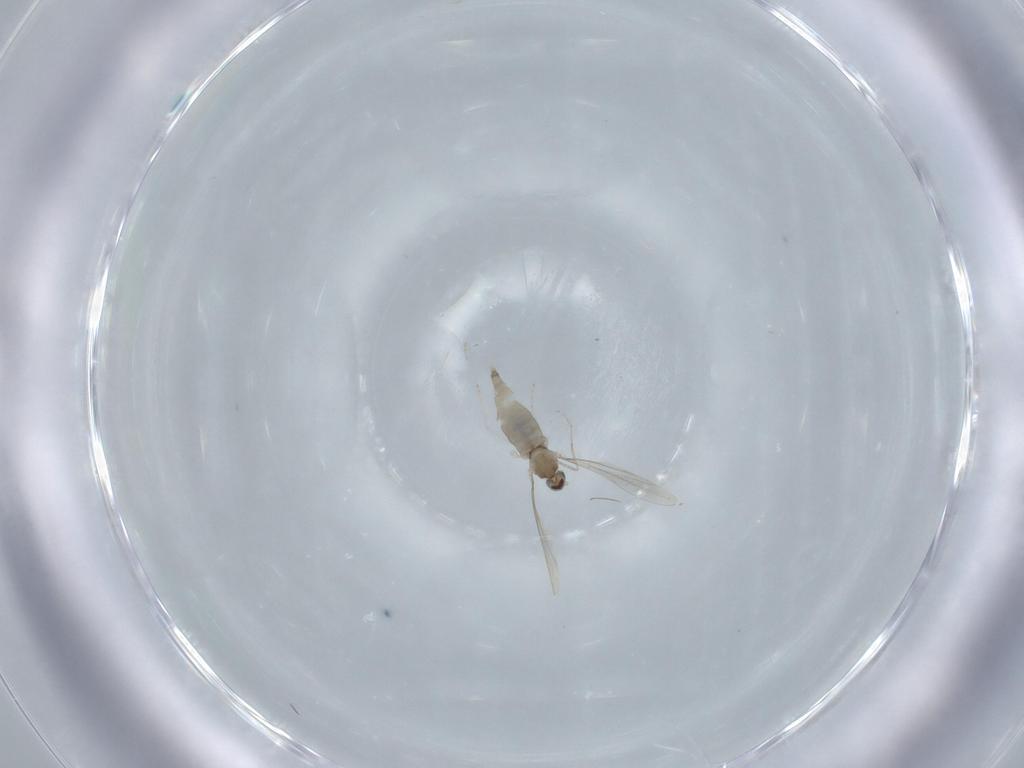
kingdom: Animalia
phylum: Arthropoda
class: Insecta
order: Diptera
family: Cecidomyiidae
